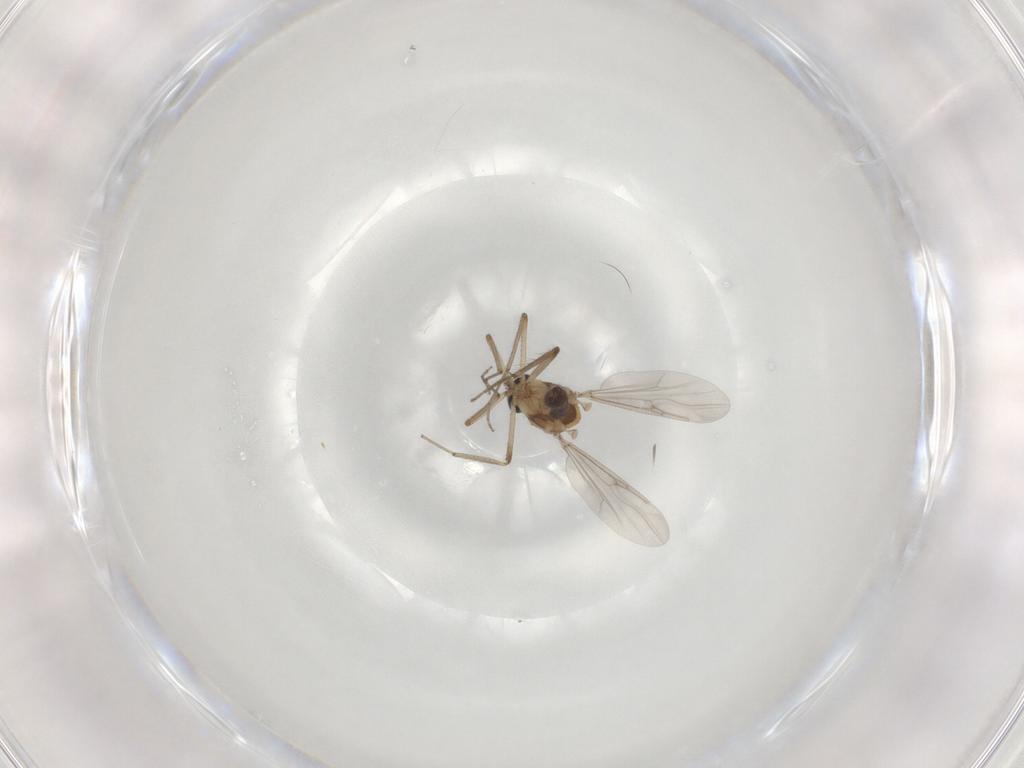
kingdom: Animalia
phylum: Arthropoda
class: Insecta
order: Diptera
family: Ceratopogonidae
